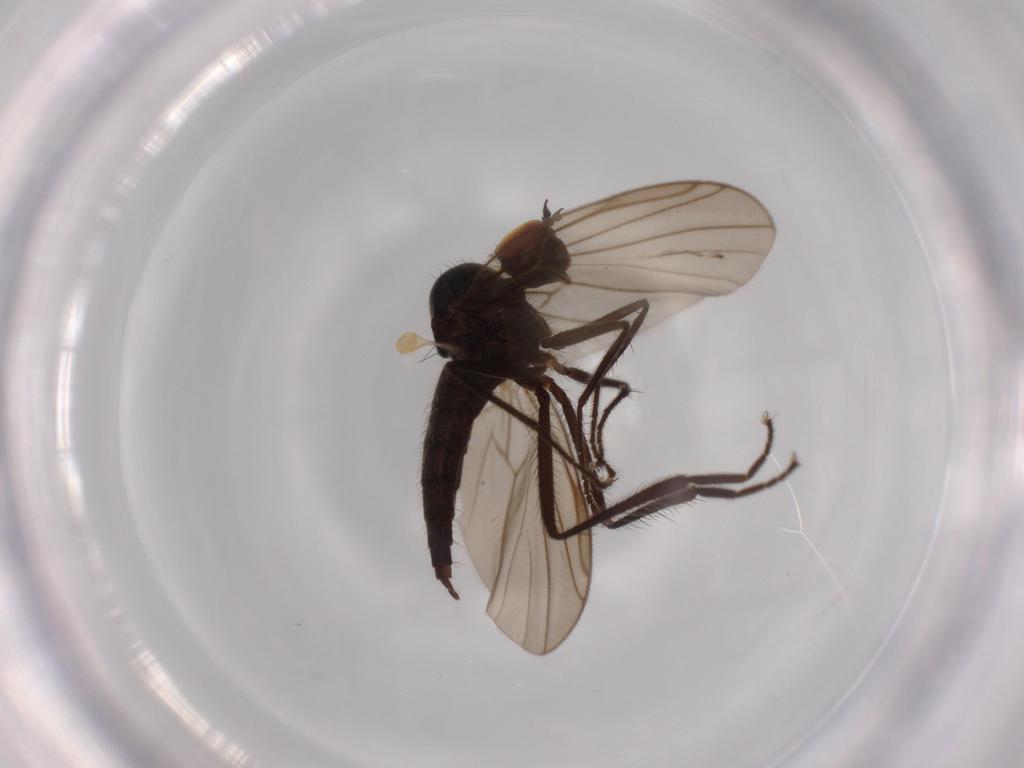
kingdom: Animalia
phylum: Arthropoda
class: Insecta
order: Diptera
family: Hybotidae
